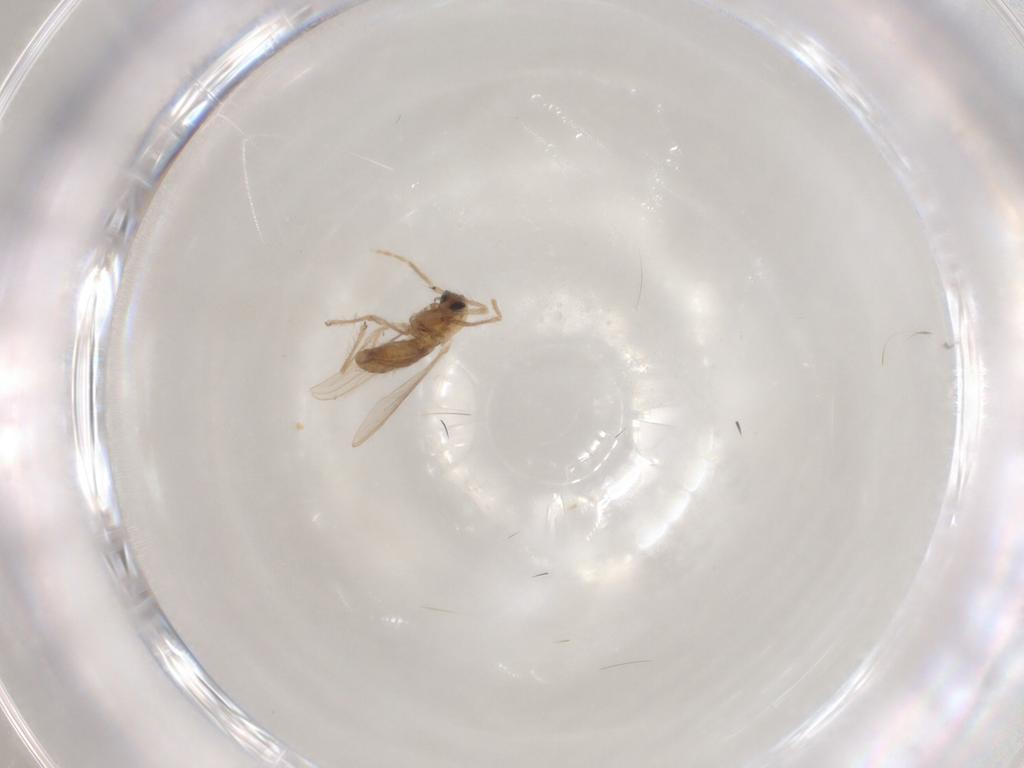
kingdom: Animalia
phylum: Arthropoda
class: Insecta
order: Diptera
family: Chironomidae
